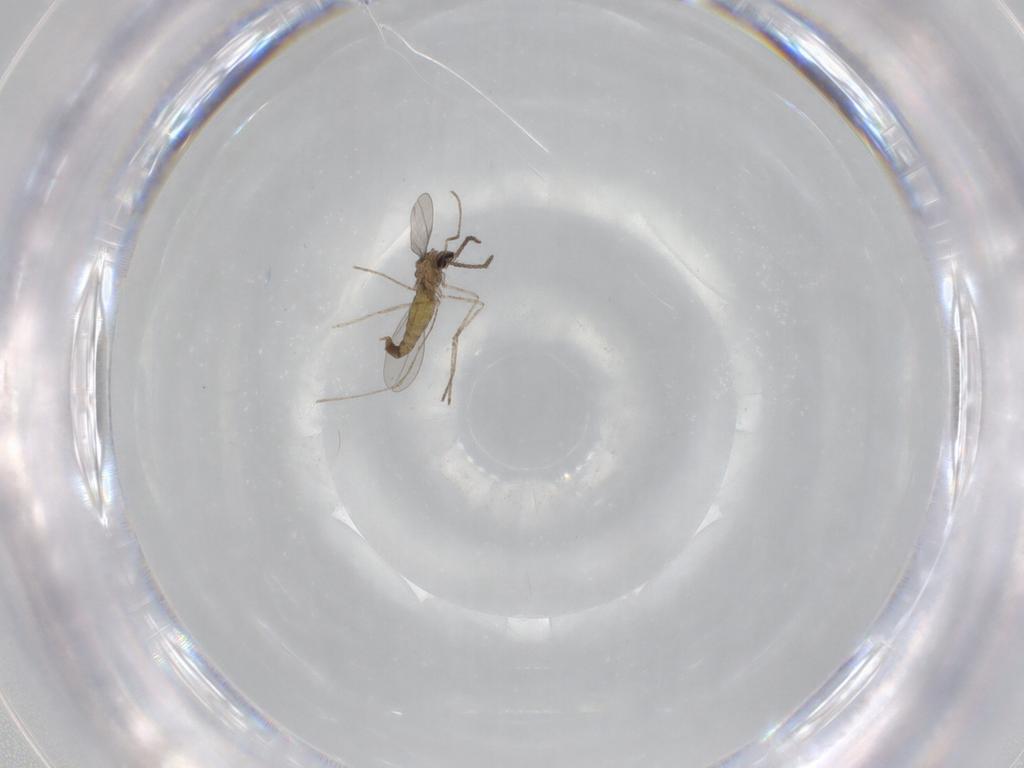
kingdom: Animalia
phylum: Arthropoda
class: Insecta
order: Diptera
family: Cecidomyiidae
